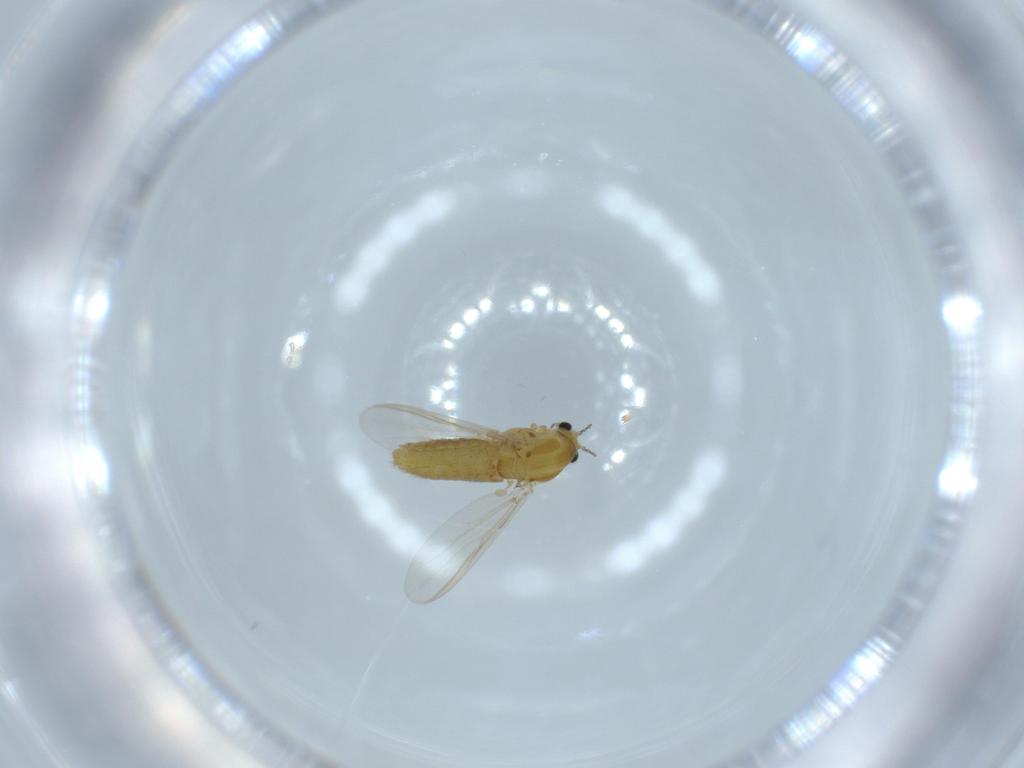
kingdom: Animalia
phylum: Arthropoda
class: Insecta
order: Diptera
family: Chironomidae
